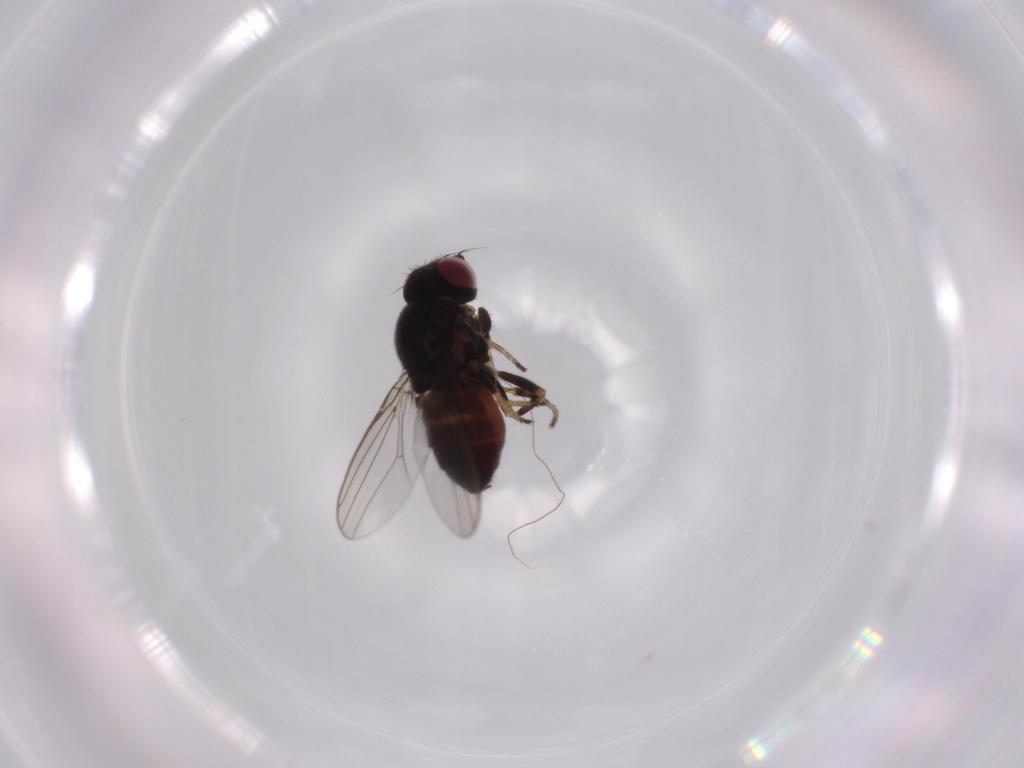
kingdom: Animalia
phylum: Arthropoda
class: Insecta
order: Diptera
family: Chloropidae
